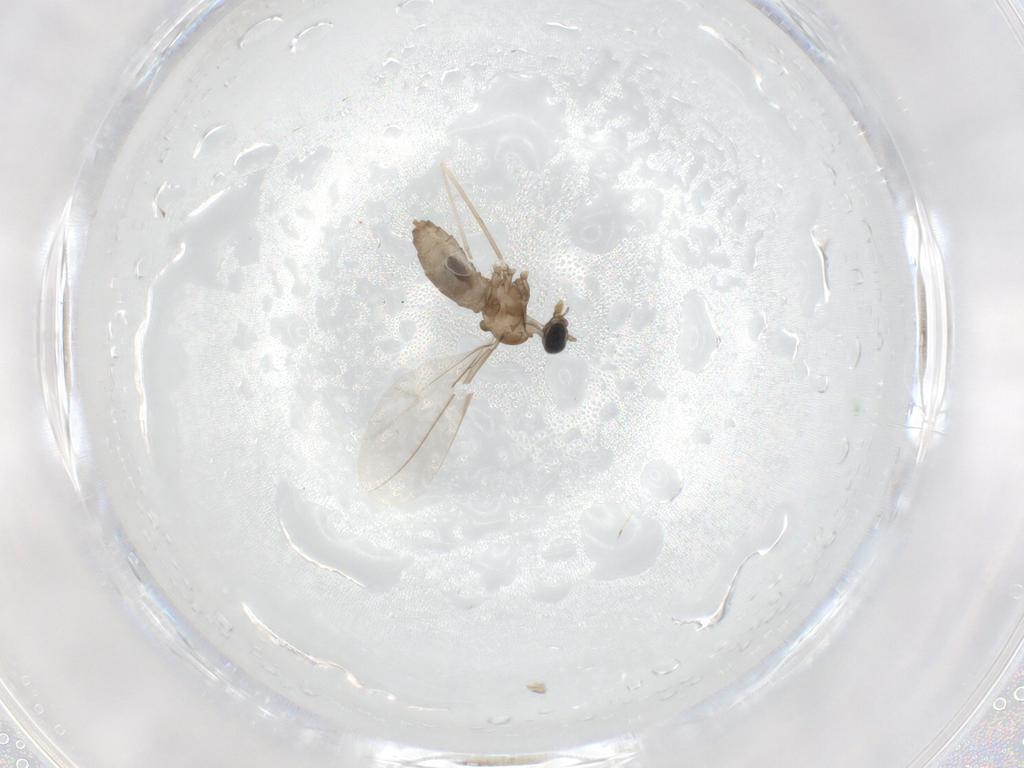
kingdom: Animalia
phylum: Arthropoda
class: Insecta
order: Diptera
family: Cecidomyiidae
